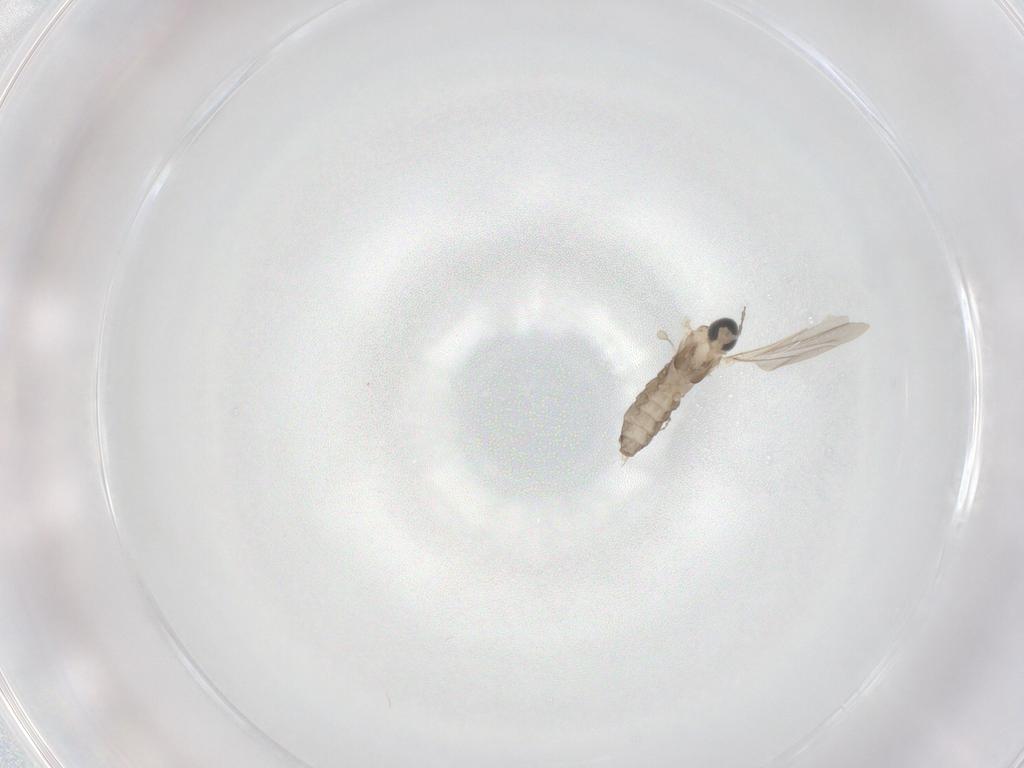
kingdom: Animalia
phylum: Arthropoda
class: Insecta
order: Diptera
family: Cecidomyiidae
